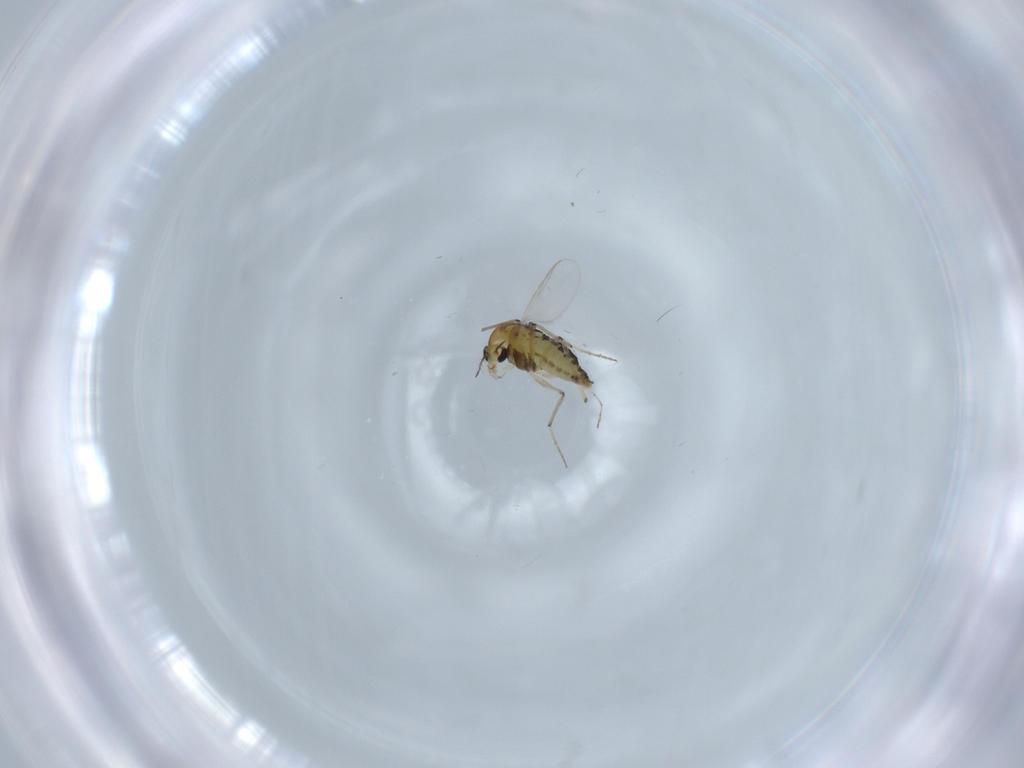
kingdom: Animalia
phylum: Arthropoda
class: Insecta
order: Diptera
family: Chironomidae
